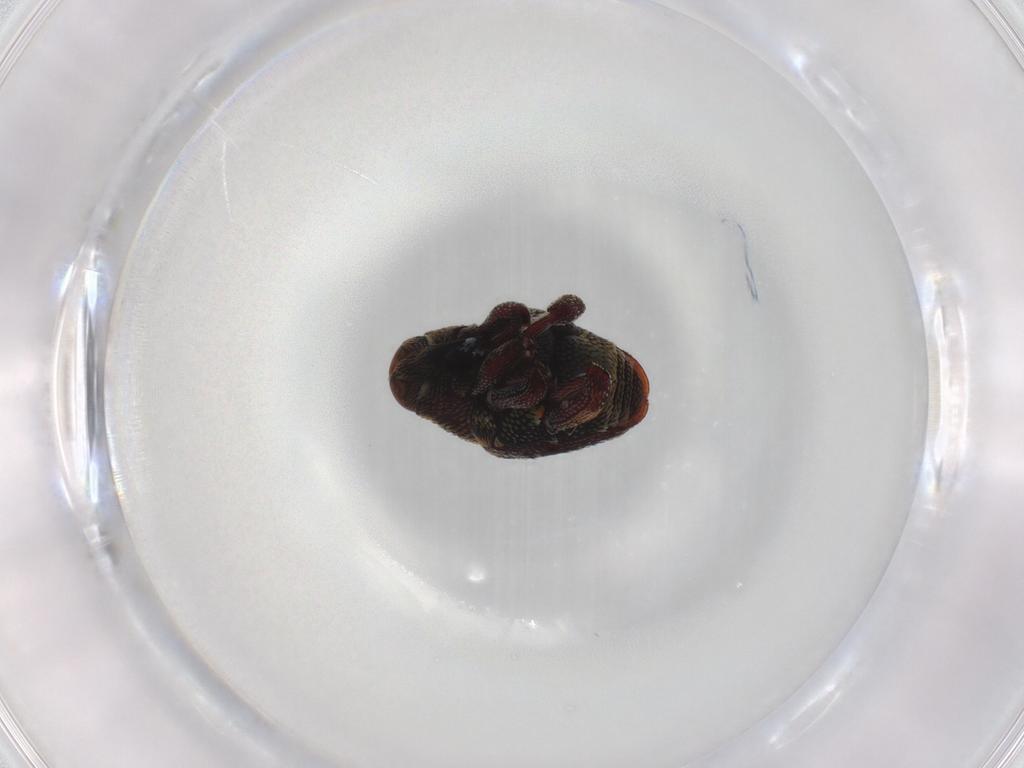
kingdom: Animalia
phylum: Arthropoda
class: Insecta
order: Coleoptera
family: Curculionidae
